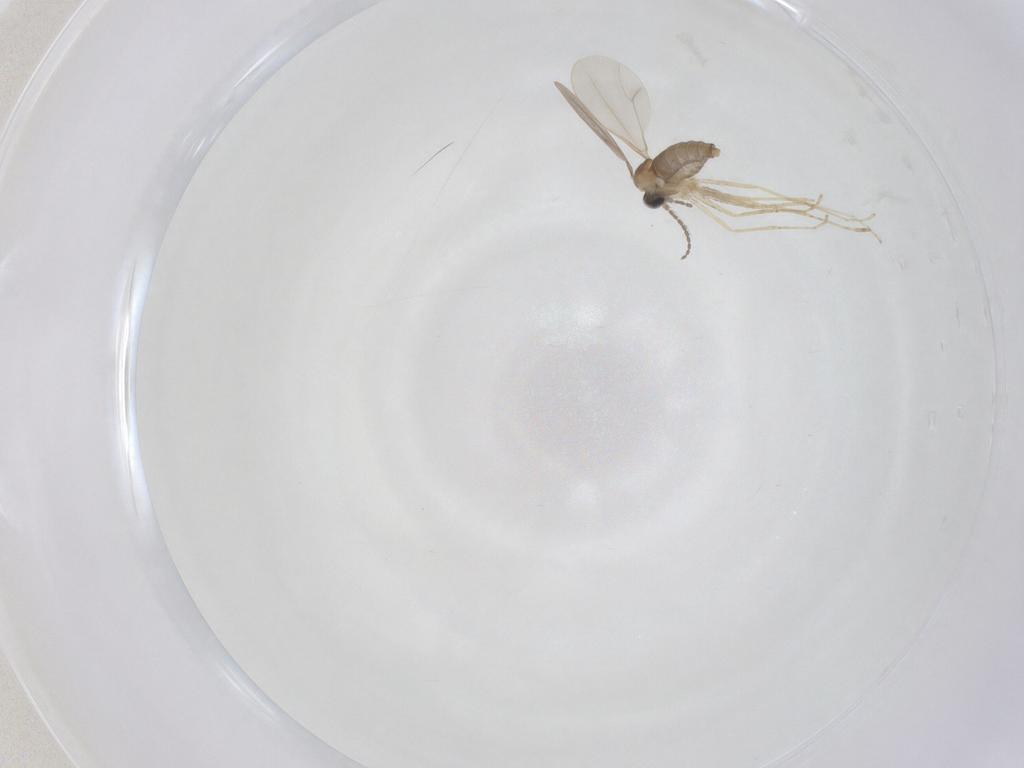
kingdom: Animalia
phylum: Arthropoda
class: Insecta
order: Diptera
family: Cecidomyiidae
